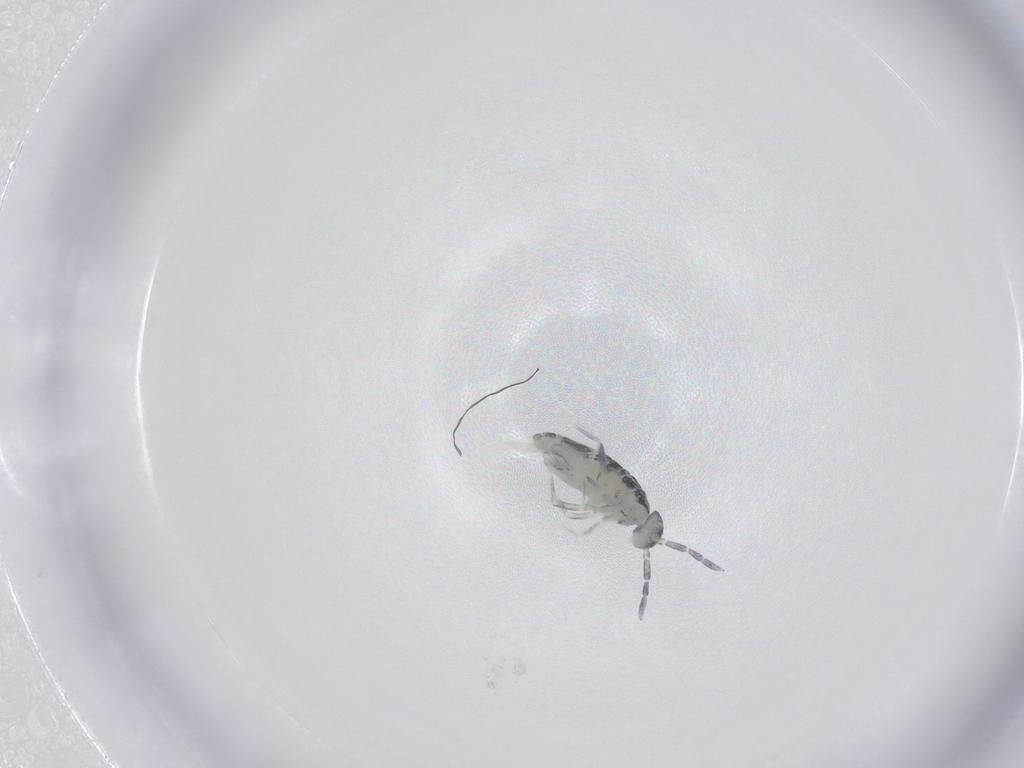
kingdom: Animalia
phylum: Arthropoda
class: Collembola
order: Entomobryomorpha
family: Entomobryidae
